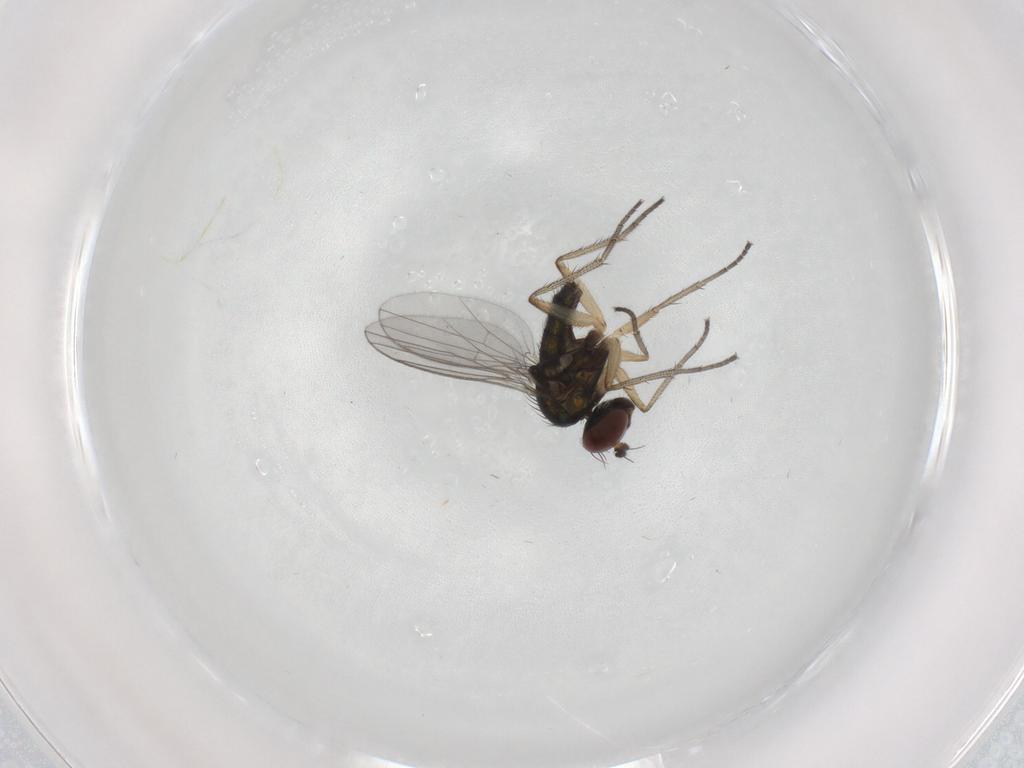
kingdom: Animalia
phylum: Arthropoda
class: Insecta
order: Diptera
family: Dolichopodidae
